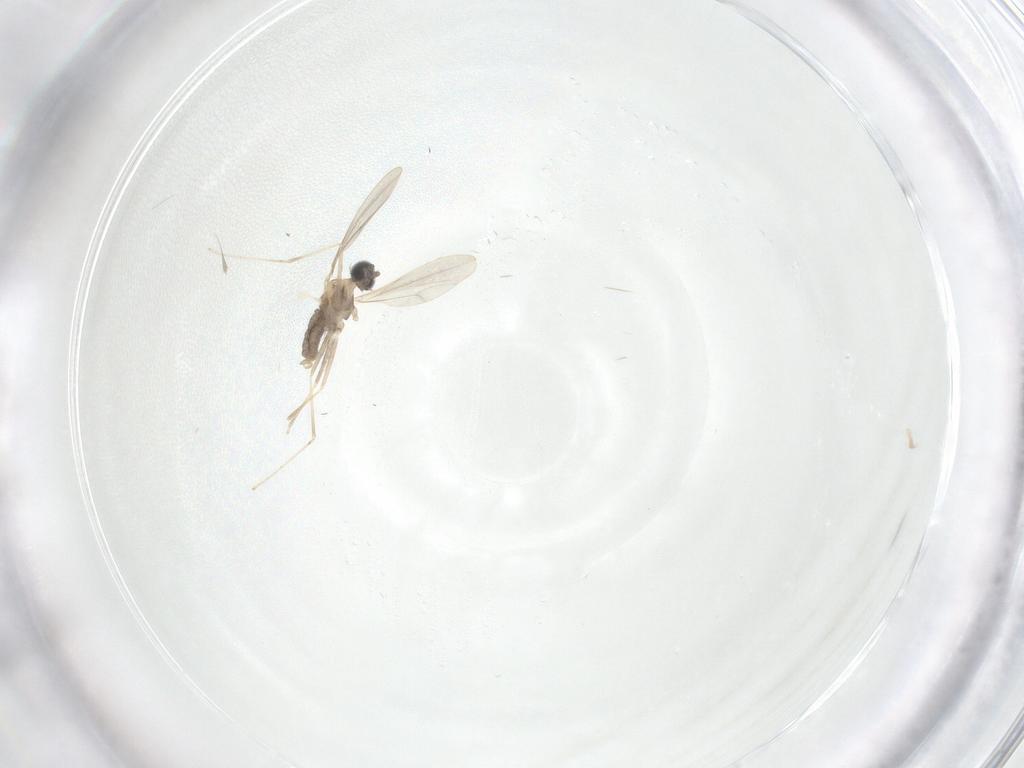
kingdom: Animalia
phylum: Arthropoda
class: Insecta
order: Diptera
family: Cecidomyiidae
